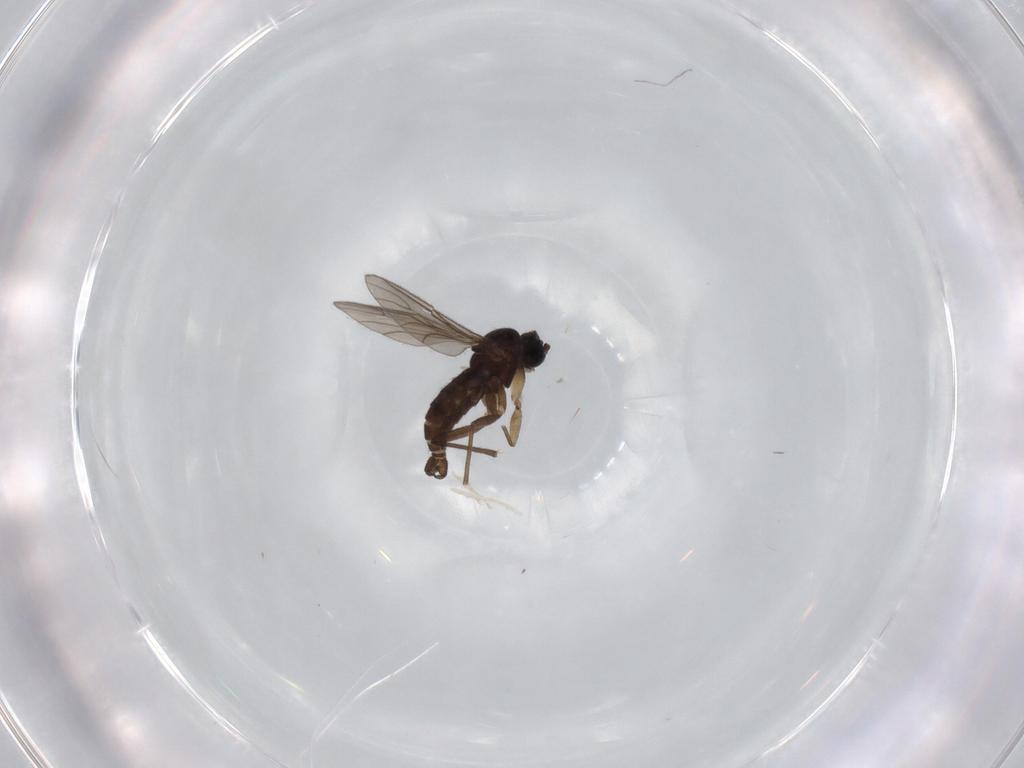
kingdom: Animalia
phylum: Arthropoda
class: Insecta
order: Diptera
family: Sciaridae
